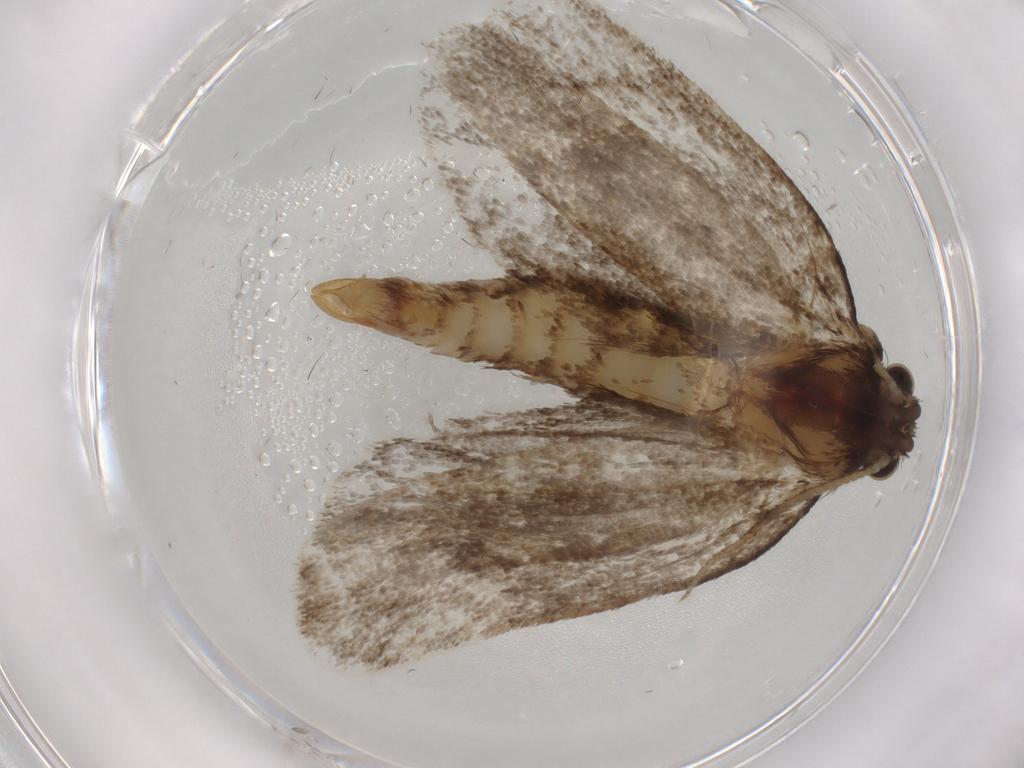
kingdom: Animalia
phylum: Arthropoda
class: Insecta
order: Lepidoptera
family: Tineidae
